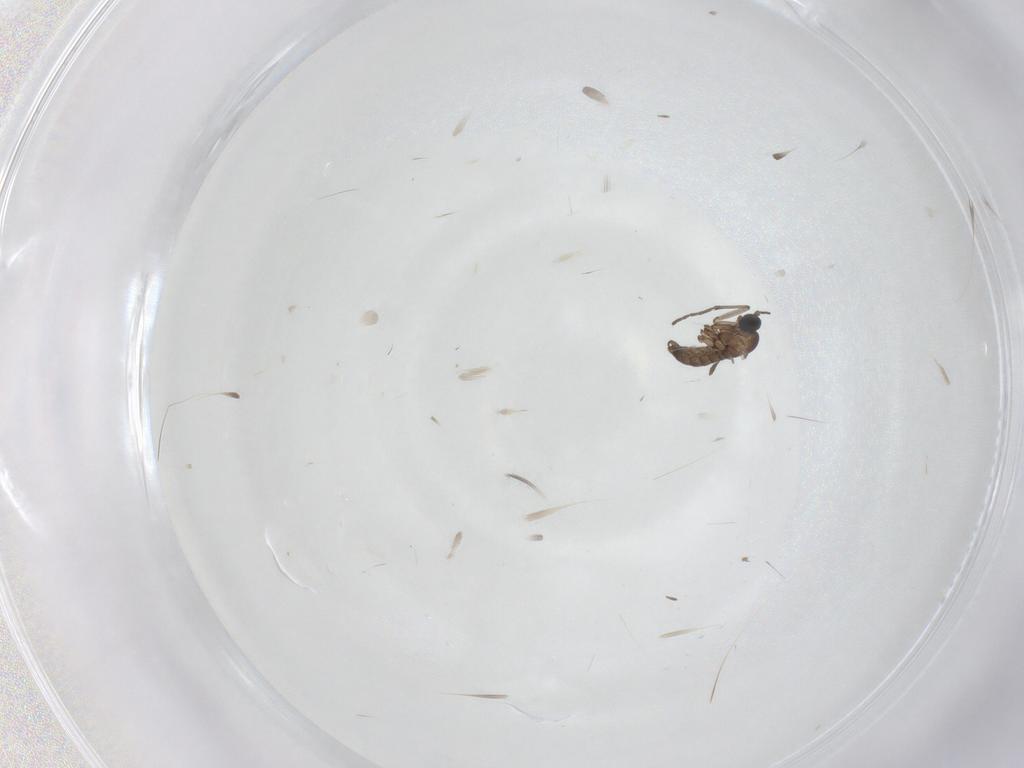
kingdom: Animalia
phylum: Arthropoda
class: Insecta
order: Diptera
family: Sciaridae
